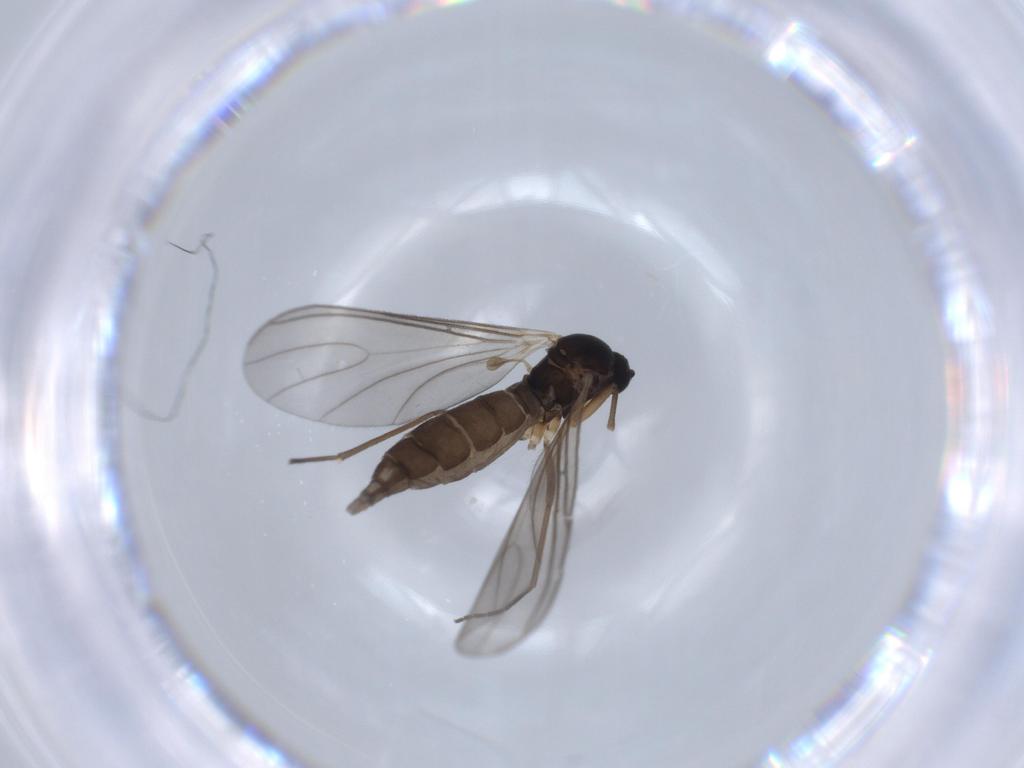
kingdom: Animalia
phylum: Arthropoda
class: Insecta
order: Diptera
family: Sciaridae
